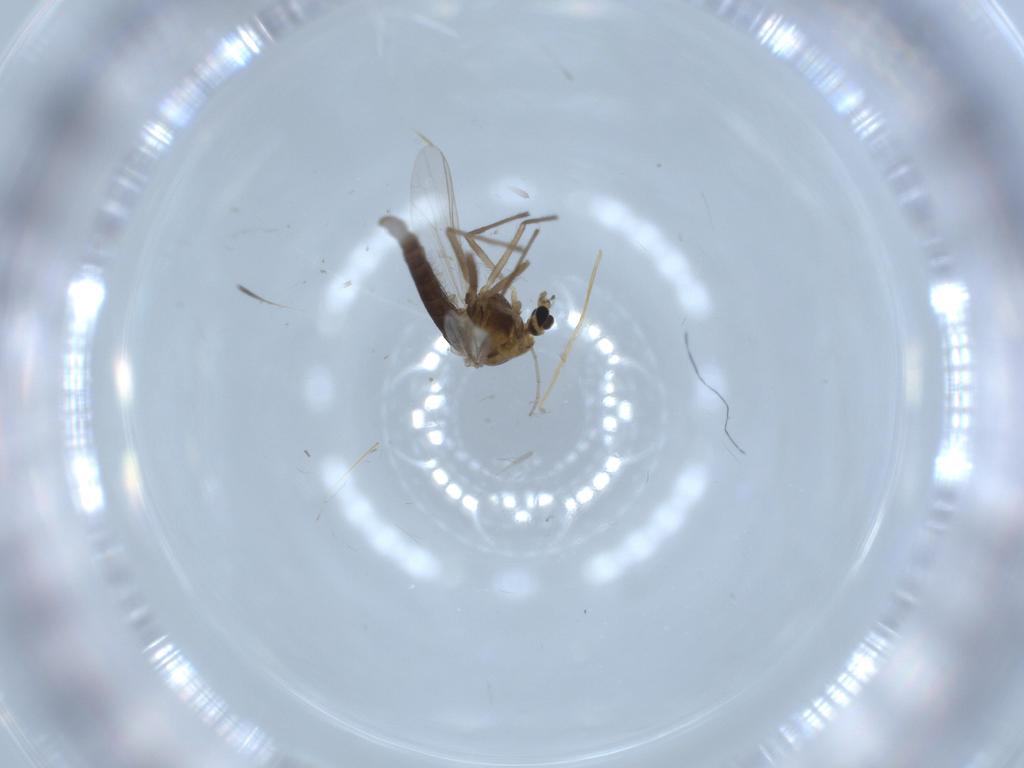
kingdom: Animalia
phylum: Arthropoda
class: Insecta
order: Diptera
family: Chironomidae
